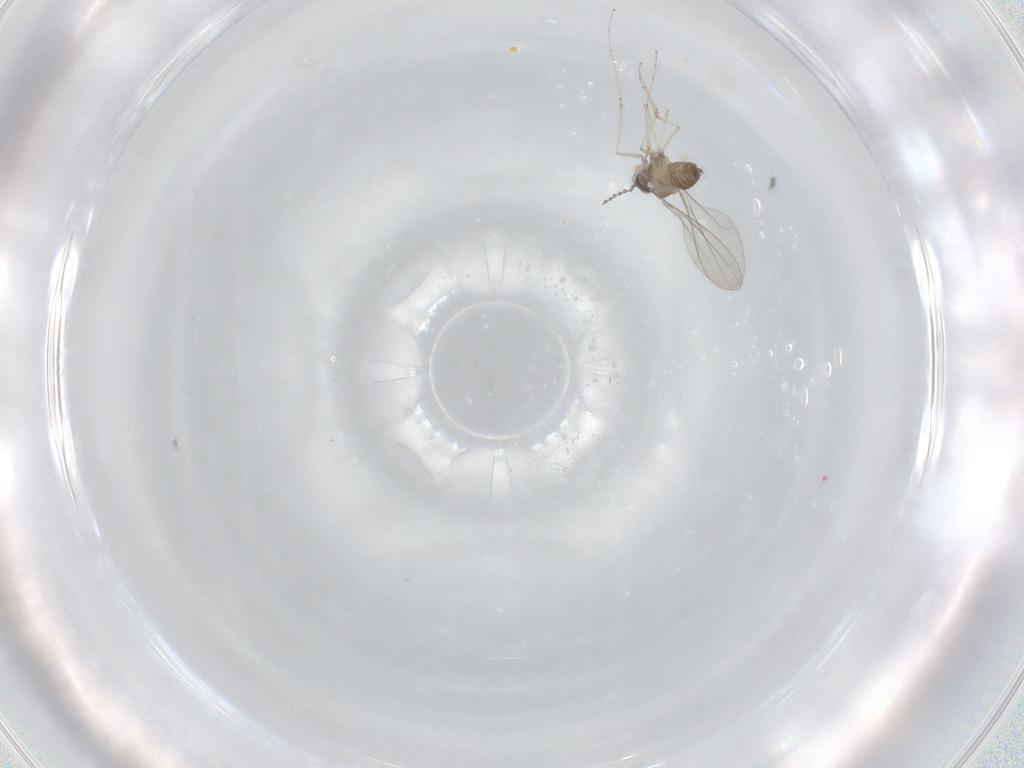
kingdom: Animalia
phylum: Arthropoda
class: Insecta
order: Diptera
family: Cecidomyiidae
